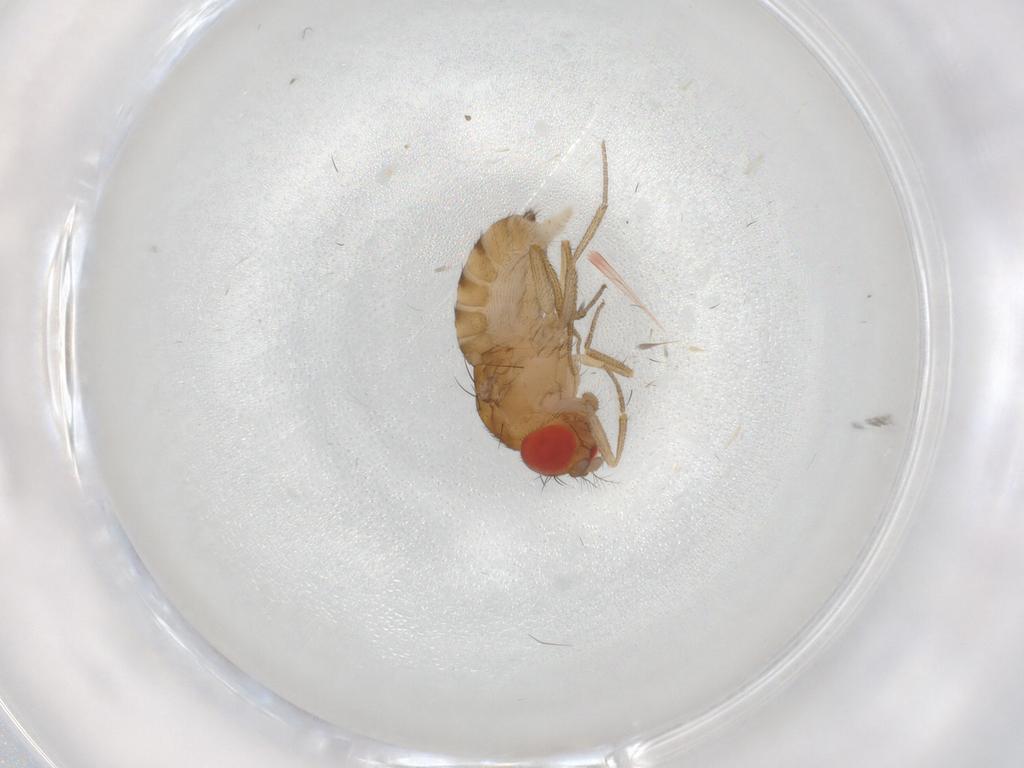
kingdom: Animalia
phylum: Arthropoda
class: Insecta
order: Diptera
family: Drosophilidae
